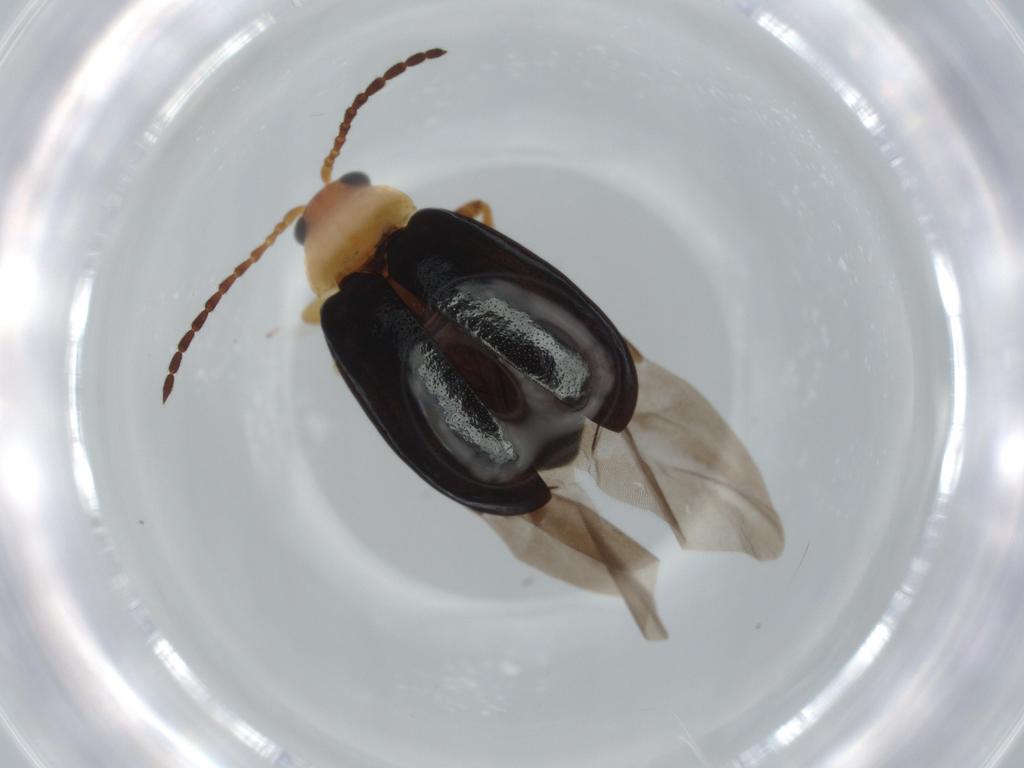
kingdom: Animalia
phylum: Arthropoda
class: Insecta
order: Coleoptera
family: Chrysomelidae
